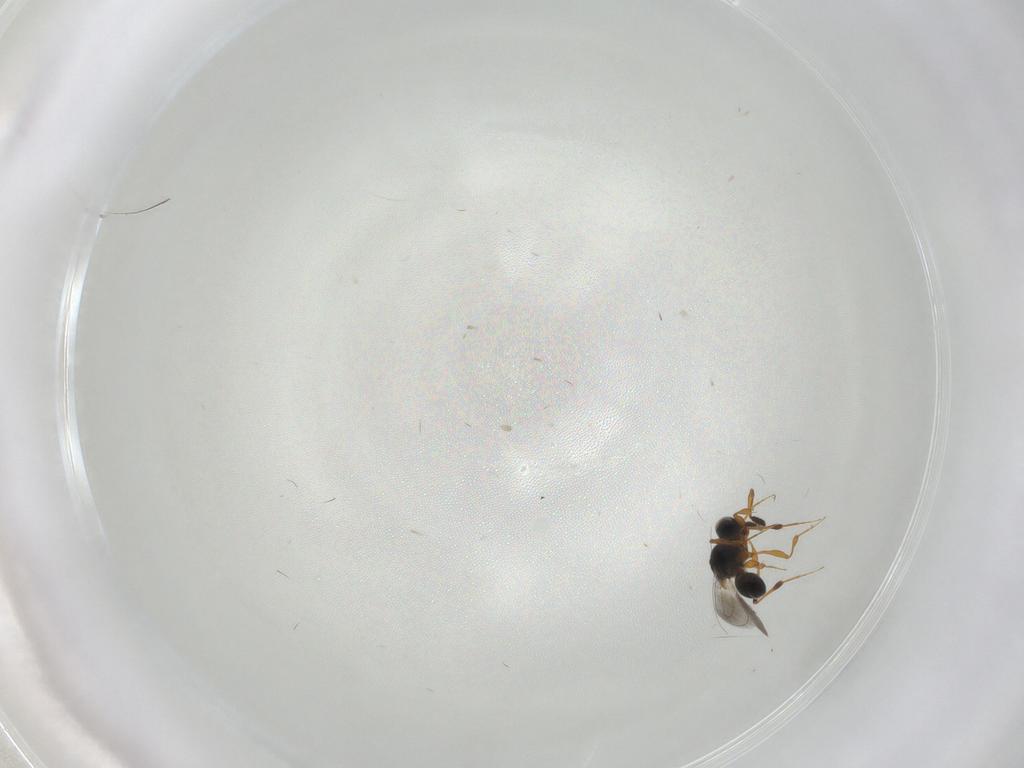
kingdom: Animalia
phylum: Arthropoda
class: Insecta
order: Hymenoptera
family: Platygastridae
